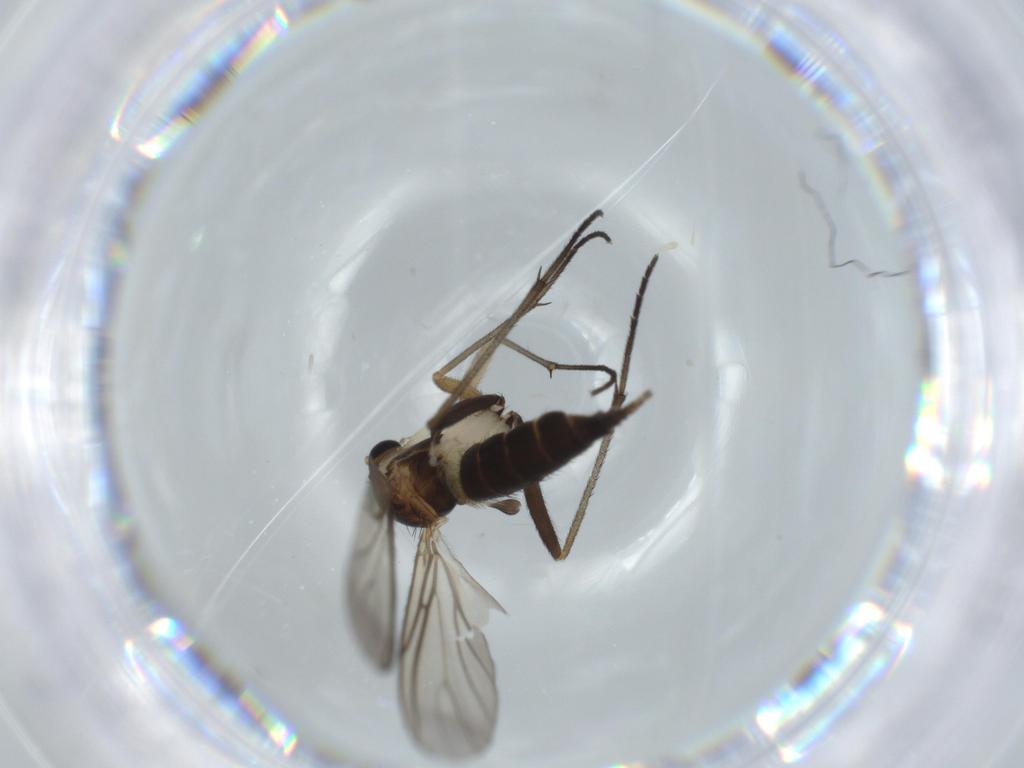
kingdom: Animalia
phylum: Arthropoda
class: Insecta
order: Diptera
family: Sciaridae
